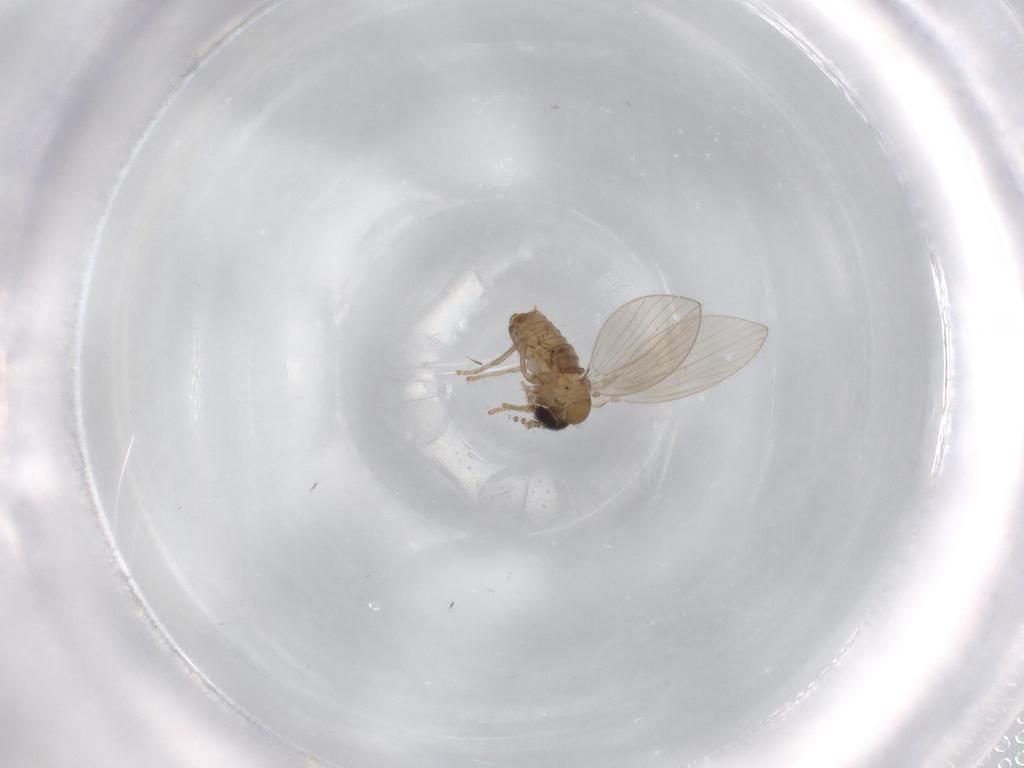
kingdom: Animalia
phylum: Arthropoda
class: Insecta
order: Diptera
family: Psychodidae
